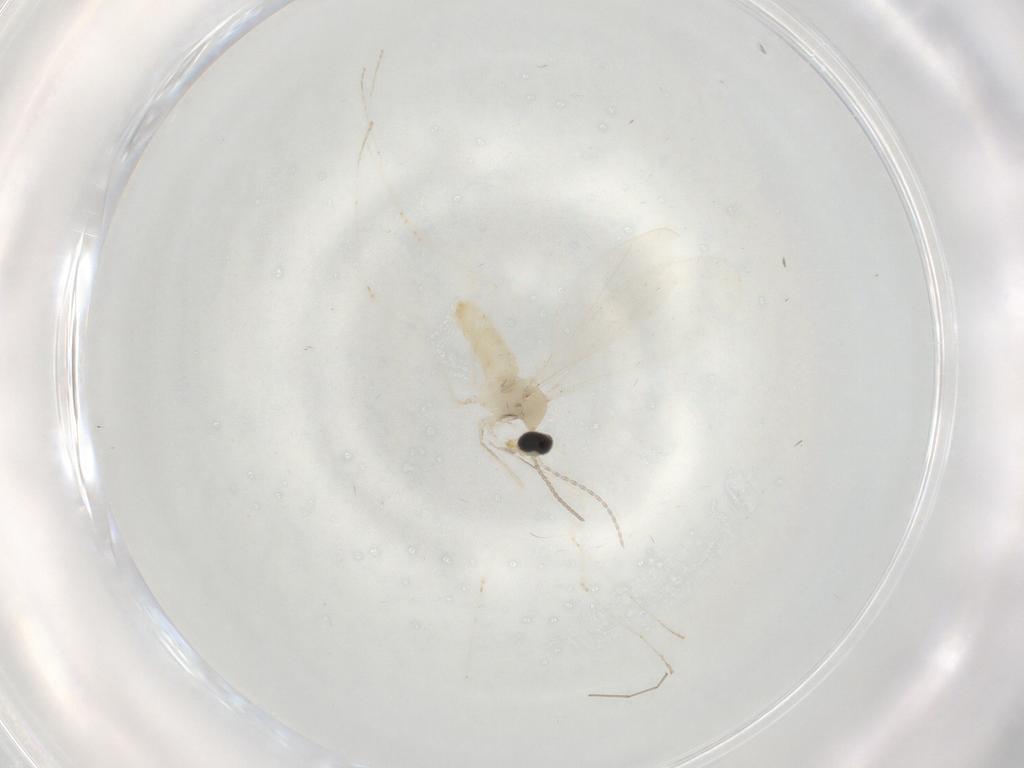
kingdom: Animalia
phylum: Arthropoda
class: Insecta
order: Diptera
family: Cecidomyiidae
